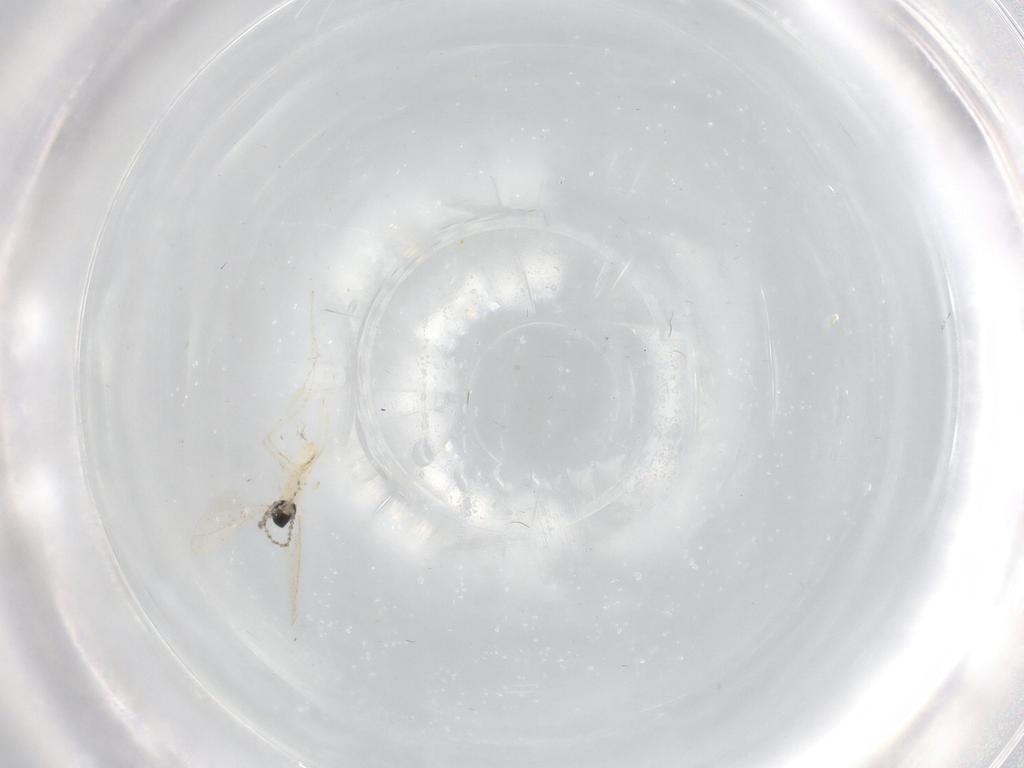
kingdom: Animalia
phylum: Arthropoda
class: Insecta
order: Diptera
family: Cecidomyiidae
